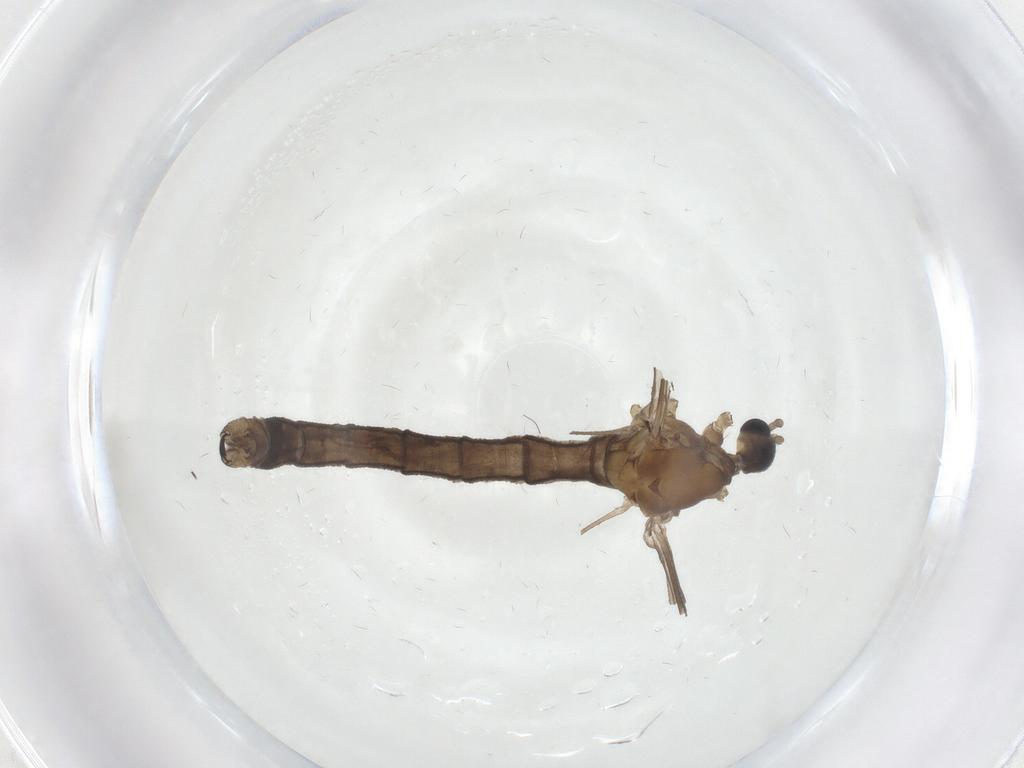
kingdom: Animalia
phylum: Arthropoda
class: Insecta
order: Diptera
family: Limoniidae
